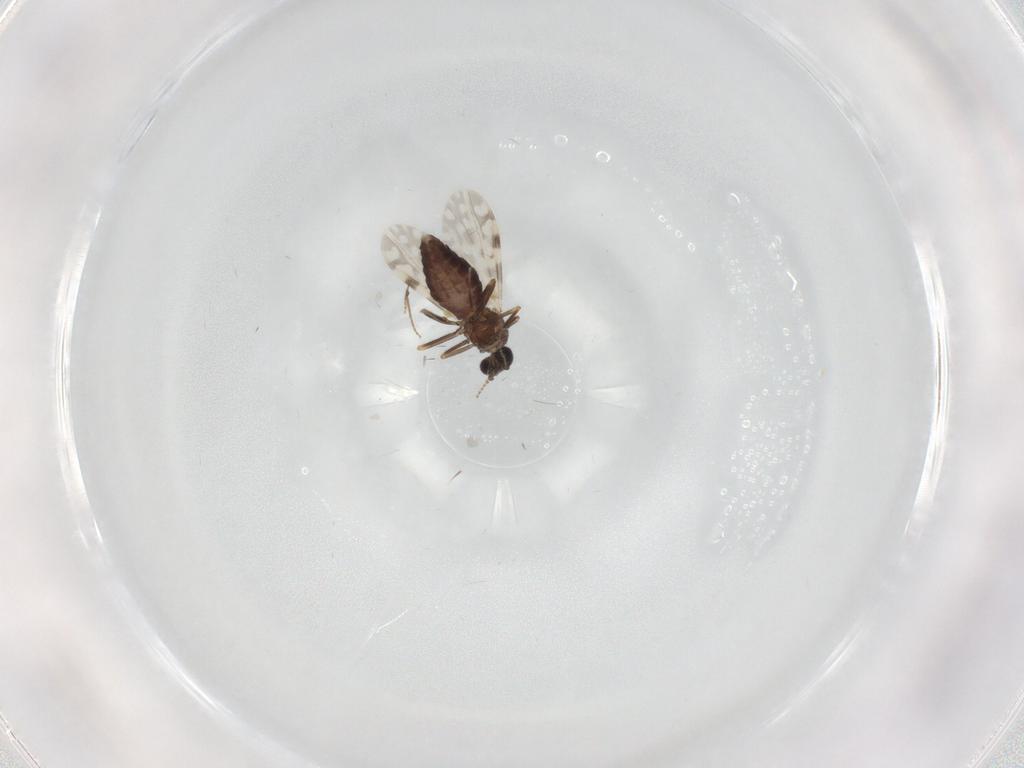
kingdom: Animalia
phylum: Arthropoda
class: Insecta
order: Diptera
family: Ceratopogonidae
